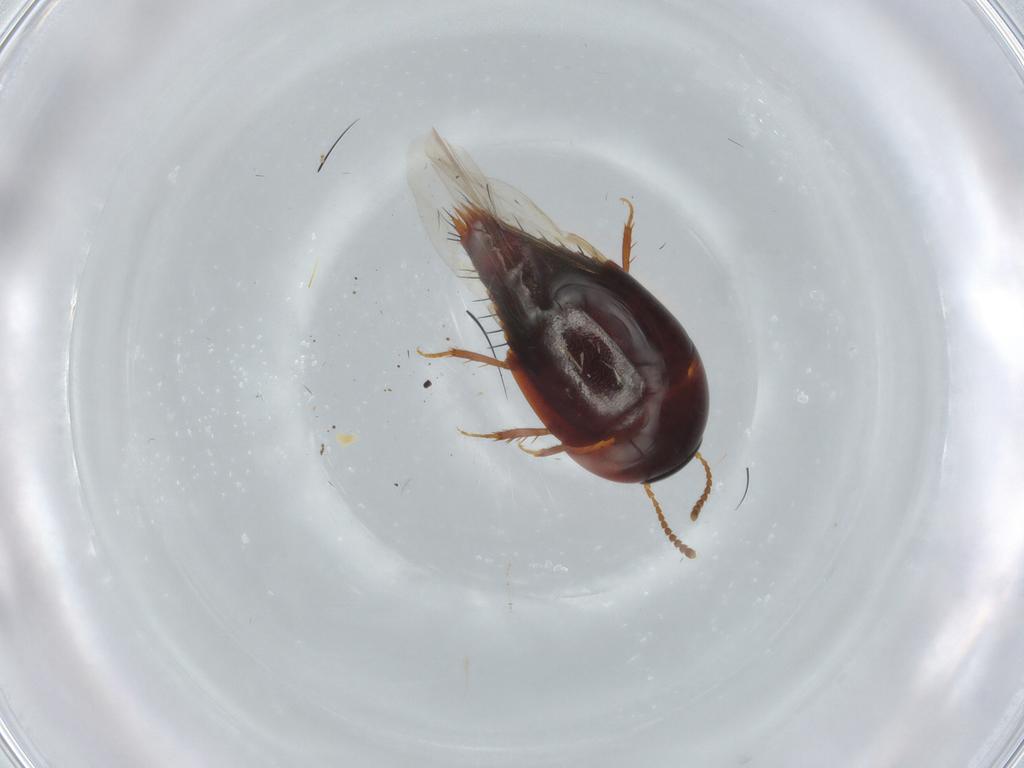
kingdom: Animalia
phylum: Arthropoda
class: Insecta
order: Coleoptera
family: Staphylinidae
